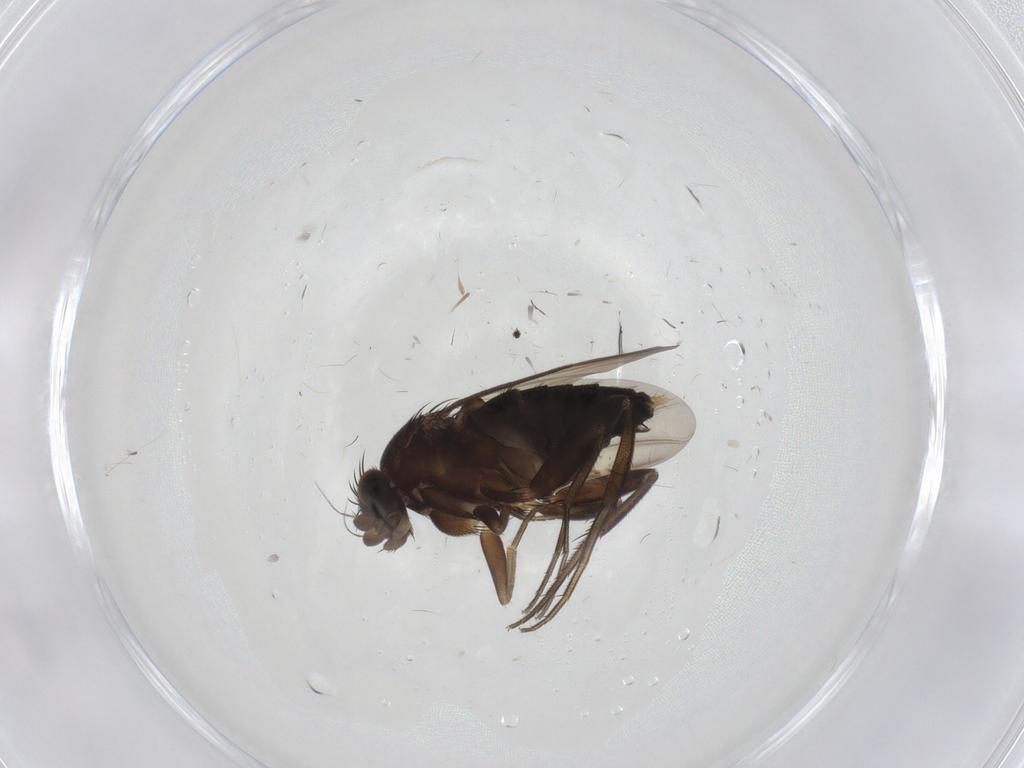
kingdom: Animalia
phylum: Arthropoda
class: Insecta
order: Diptera
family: Phoridae
